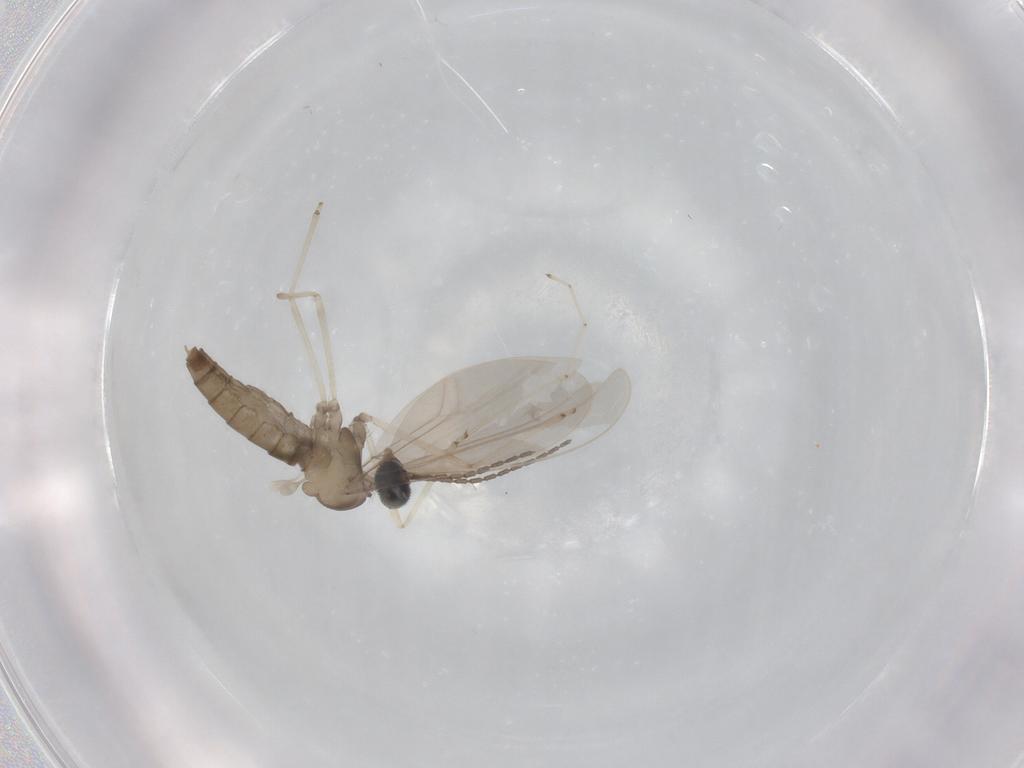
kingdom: Animalia
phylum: Arthropoda
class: Insecta
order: Diptera
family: Cecidomyiidae
